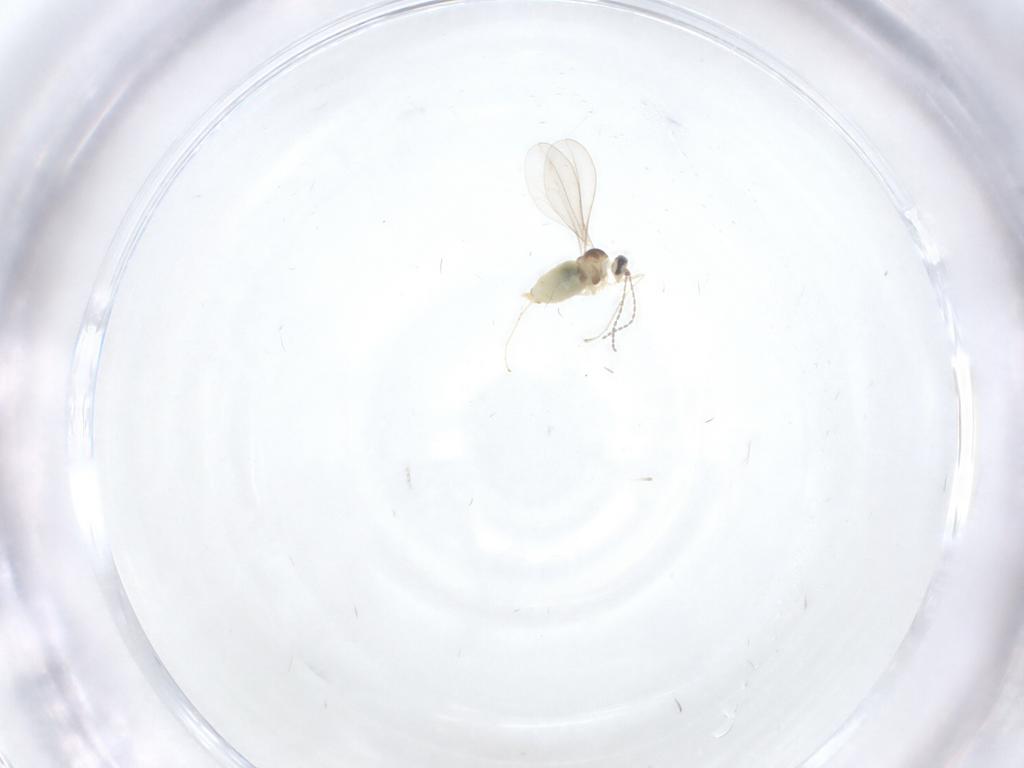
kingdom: Animalia
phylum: Arthropoda
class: Insecta
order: Diptera
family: Cecidomyiidae
